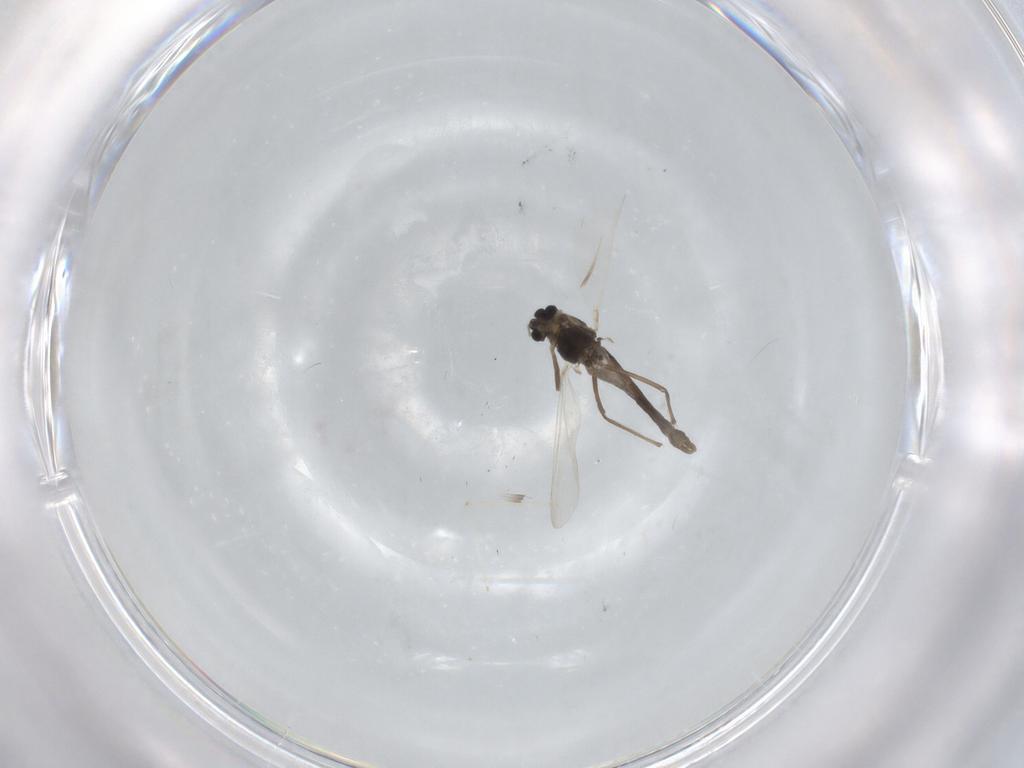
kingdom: Animalia
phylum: Arthropoda
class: Insecta
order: Diptera
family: Chironomidae
